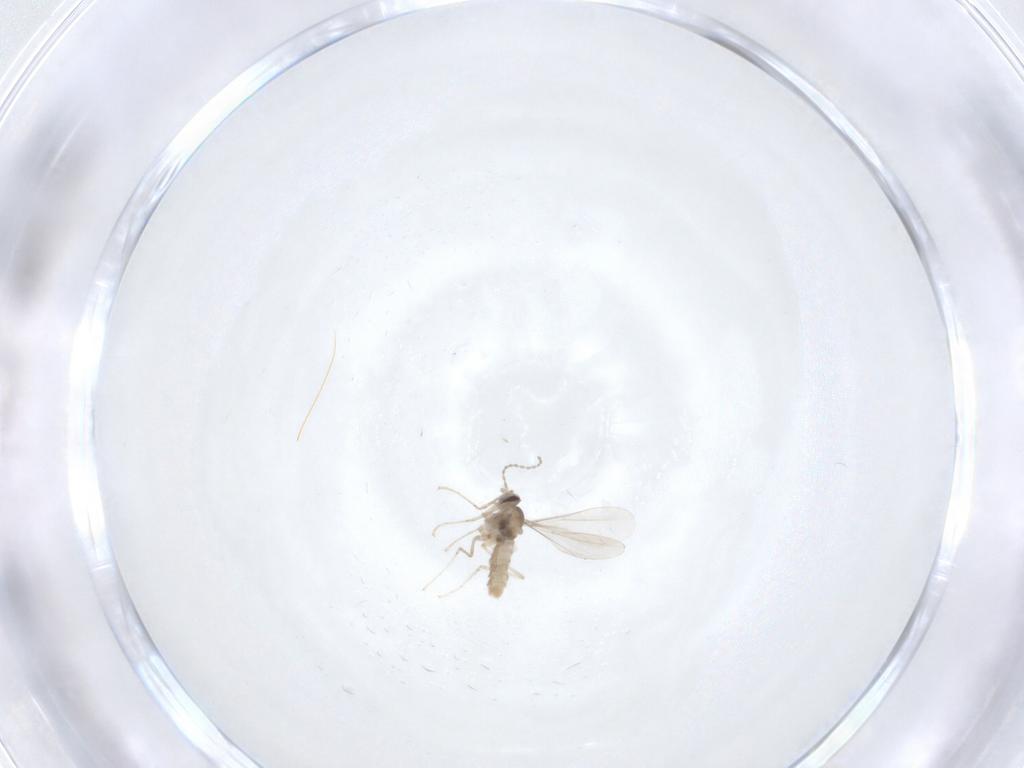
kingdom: Animalia
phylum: Arthropoda
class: Insecta
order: Diptera
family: Cecidomyiidae
